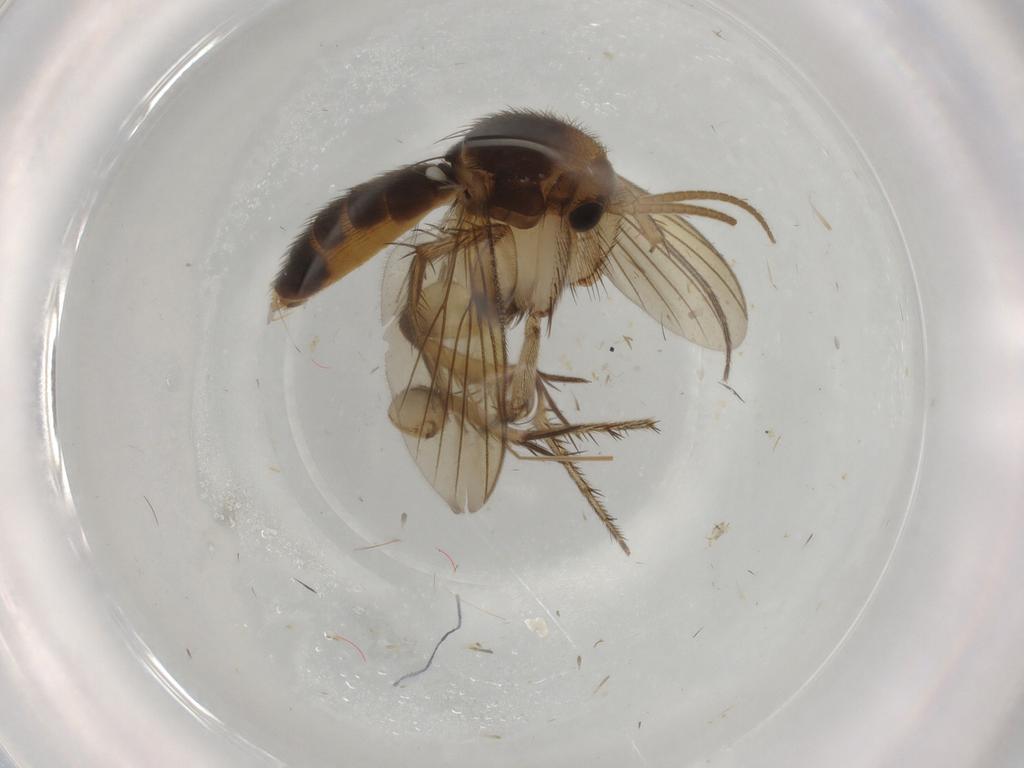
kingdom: Animalia
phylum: Arthropoda
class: Insecta
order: Diptera
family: Mycetophilidae
